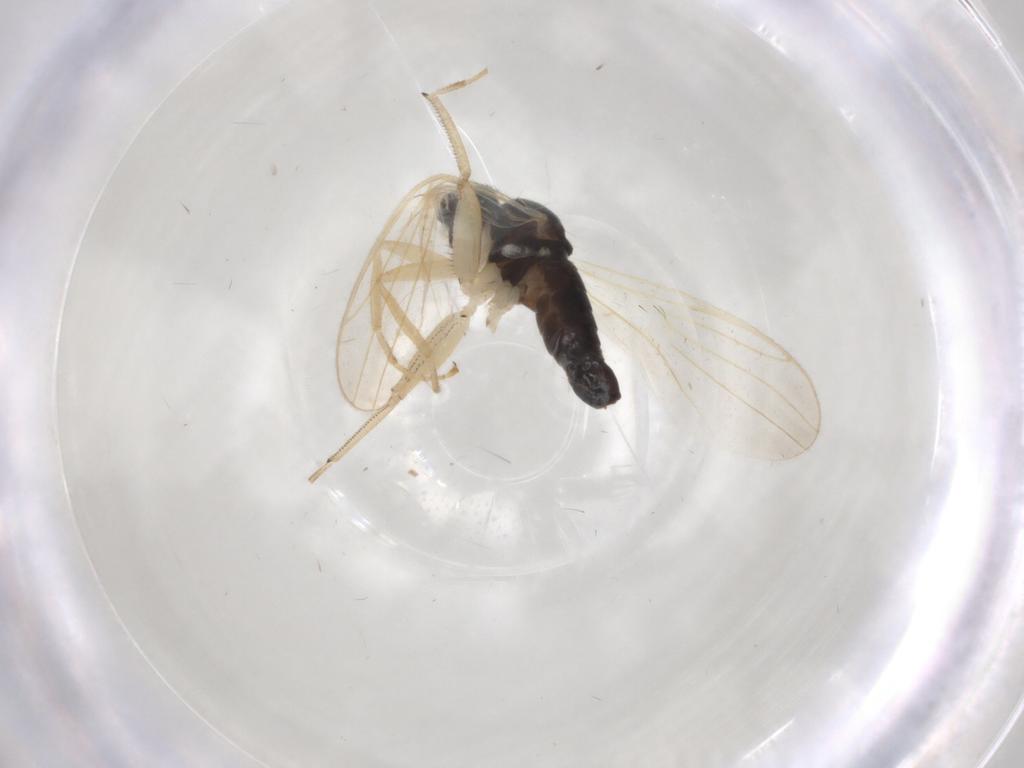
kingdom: Animalia
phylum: Arthropoda
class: Insecta
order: Diptera
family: Hybotidae
